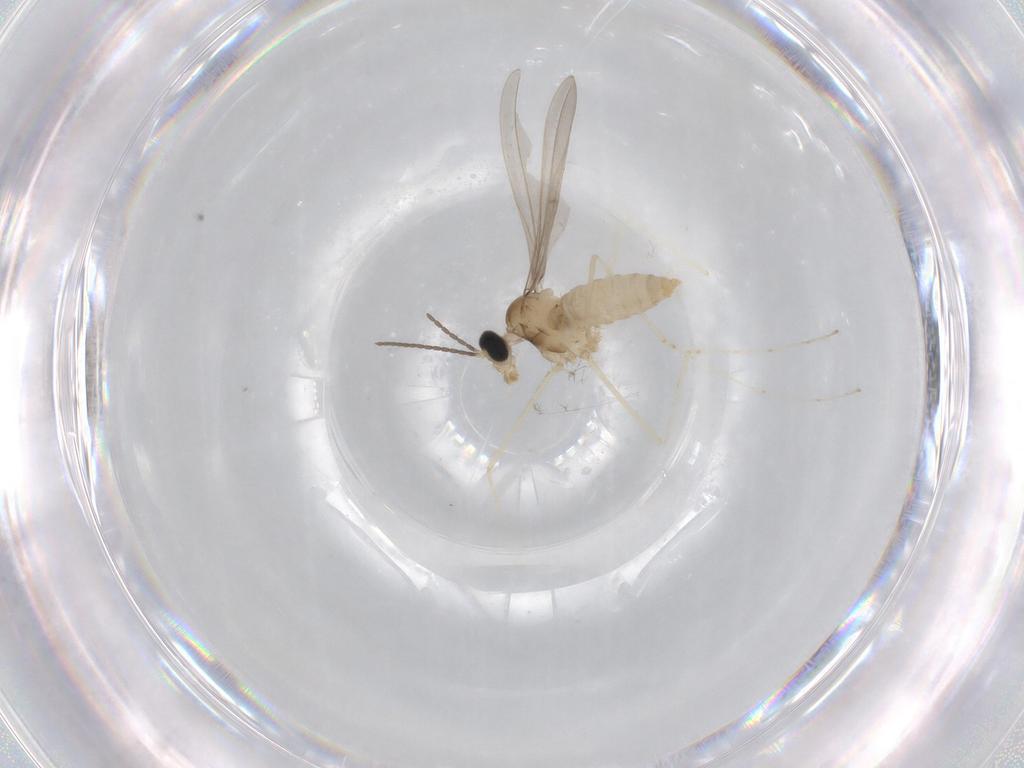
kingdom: Animalia
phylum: Arthropoda
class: Insecta
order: Diptera
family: Cecidomyiidae
